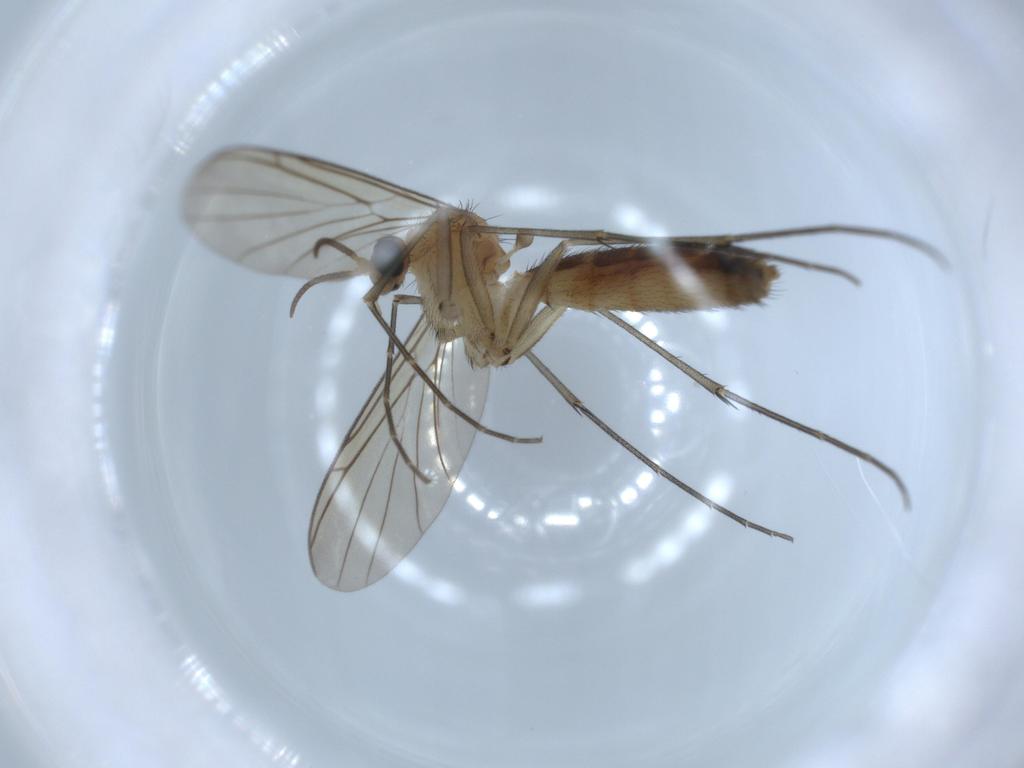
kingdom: Animalia
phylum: Arthropoda
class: Insecta
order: Diptera
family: Keroplatidae
